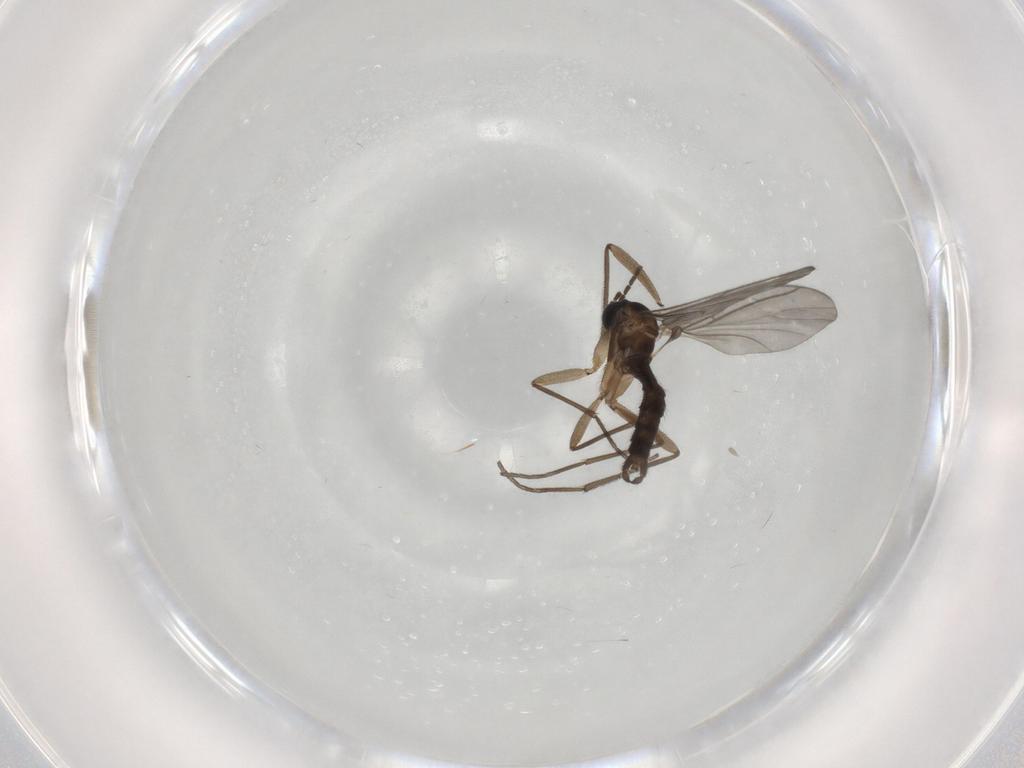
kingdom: Animalia
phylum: Arthropoda
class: Insecta
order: Diptera
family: Sciaridae
